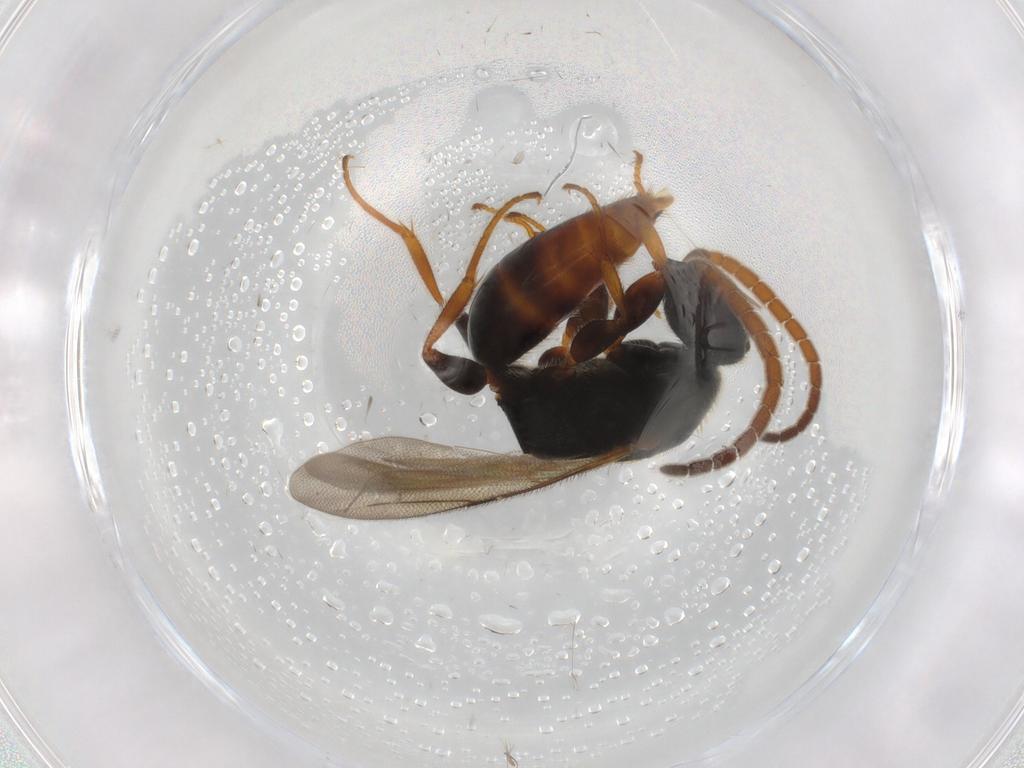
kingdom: Animalia
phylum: Arthropoda
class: Insecta
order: Hymenoptera
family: Bethylidae
